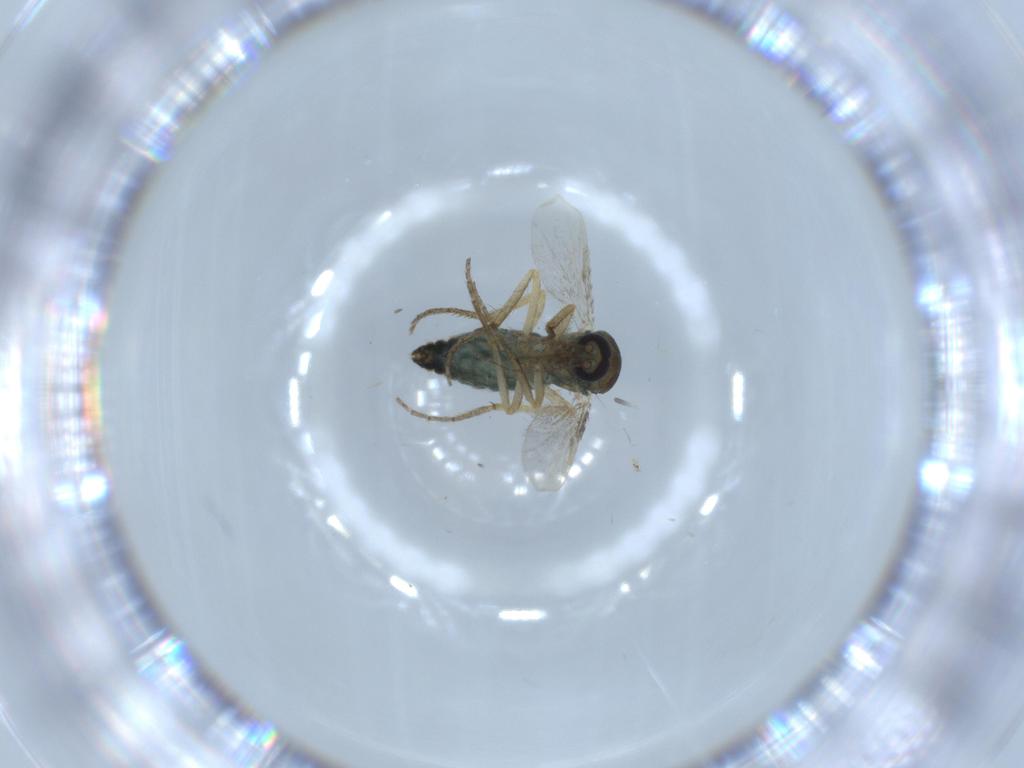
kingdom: Animalia
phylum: Arthropoda
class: Insecta
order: Diptera
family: Ceratopogonidae
